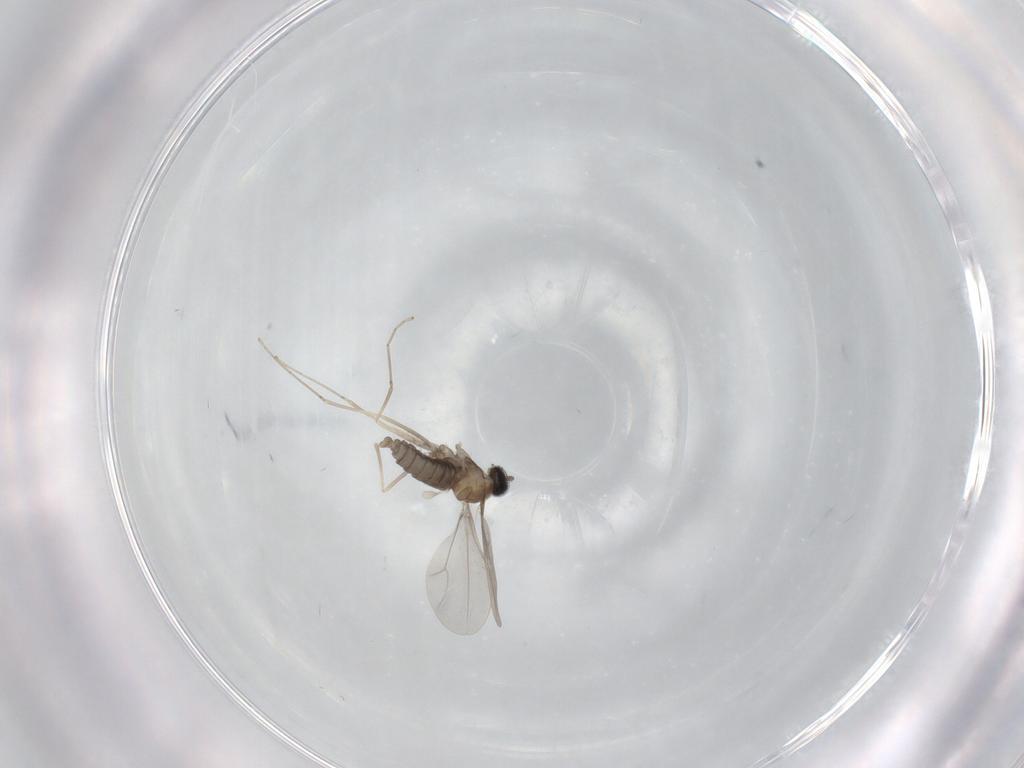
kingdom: Animalia
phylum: Arthropoda
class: Insecta
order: Diptera
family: Cecidomyiidae
